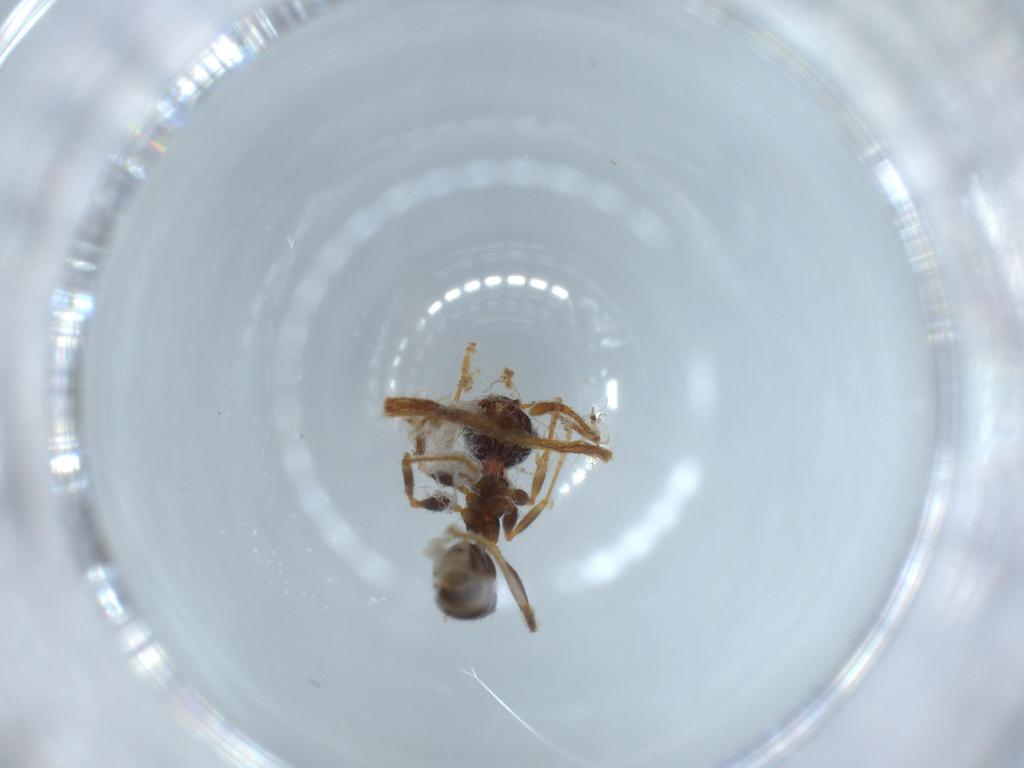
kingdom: Animalia
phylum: Arthropoda
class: Insecta
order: Hymenoptera
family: Formicidae
